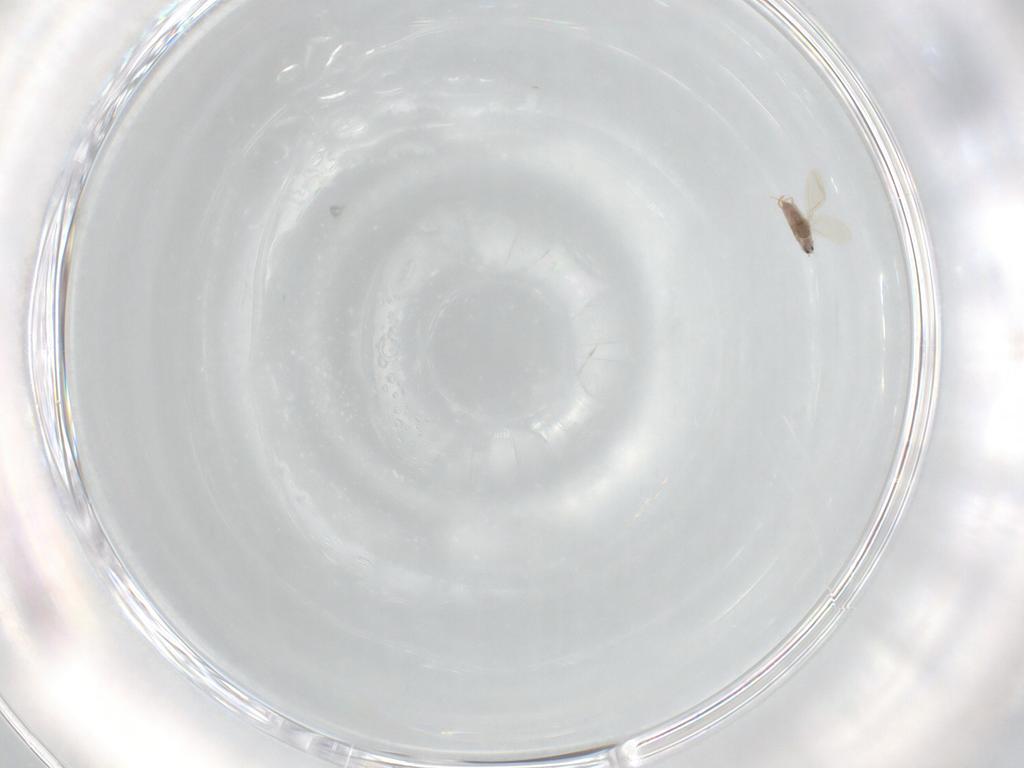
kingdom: Animalia
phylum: Arthropoda
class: Insecta
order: Hemiptera
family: Diaspididae
